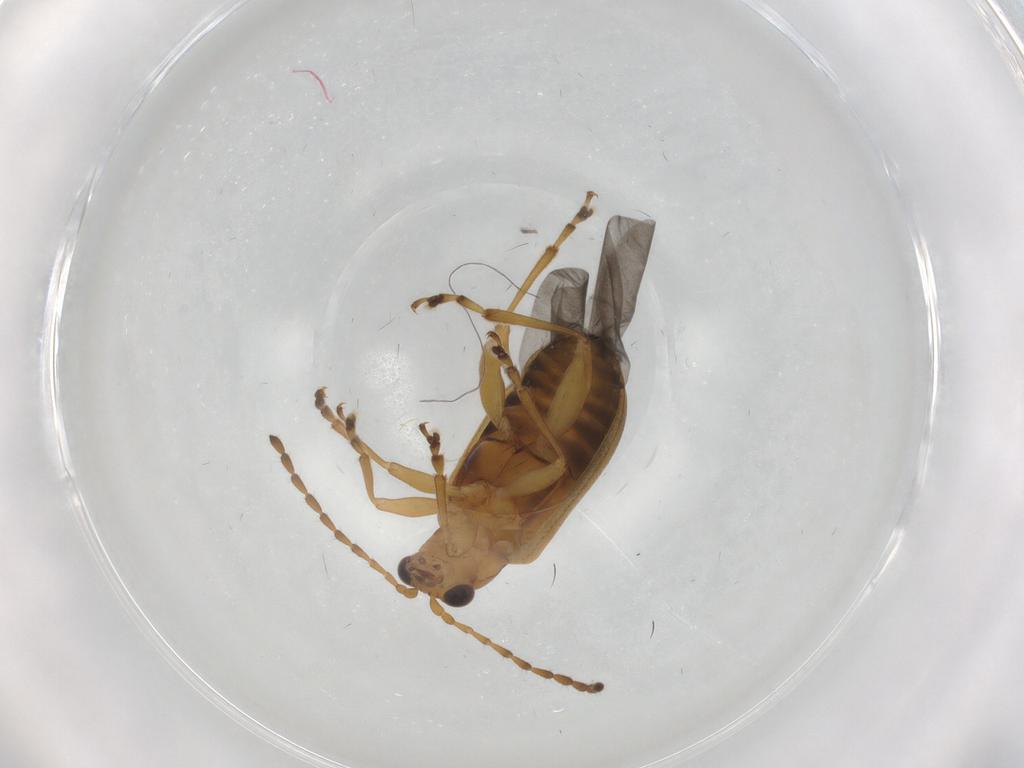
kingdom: Animalia
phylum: Arthropoda
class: Insecta
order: Coleoptera
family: Chrysomelidae
